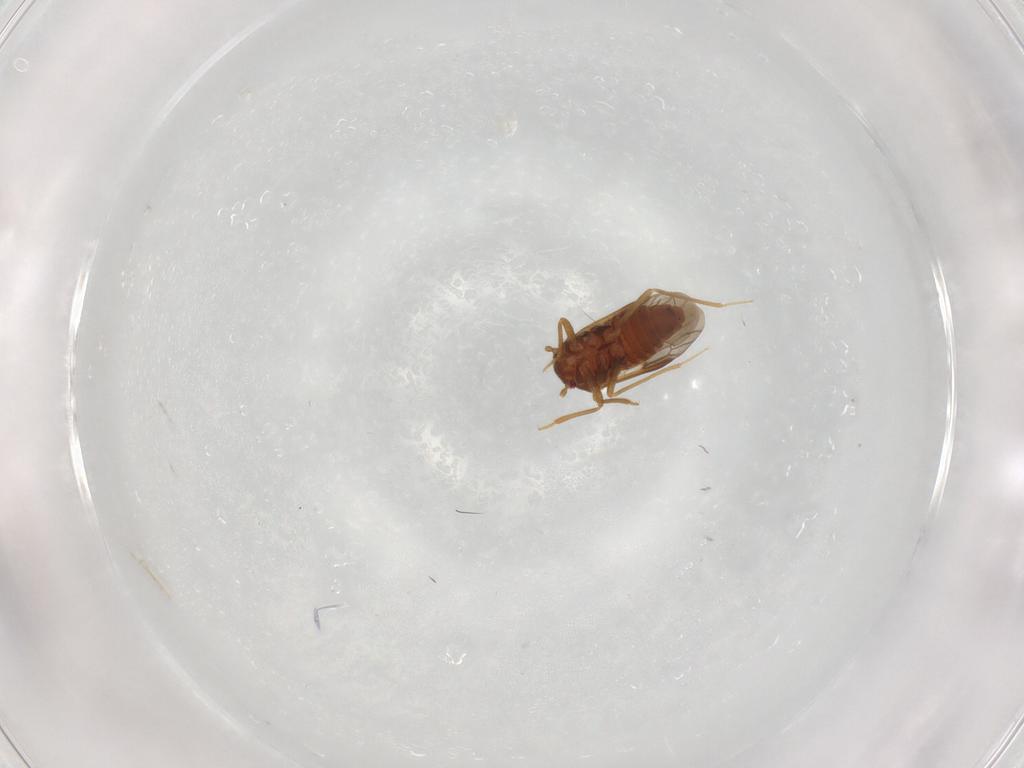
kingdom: Animalia
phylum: Arthropoda
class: Insecta
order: Hemiptera
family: Schizopteridae
